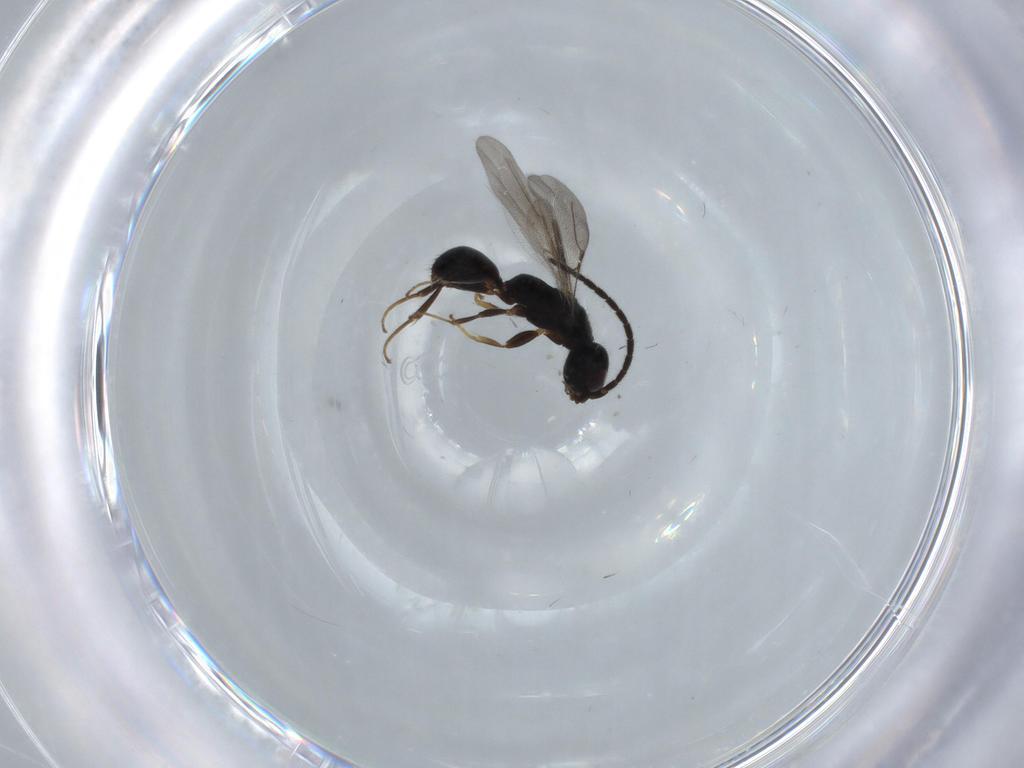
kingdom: Animalia
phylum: Arthropoda
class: Insecta
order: Hymenoptera
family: Bethylidae
